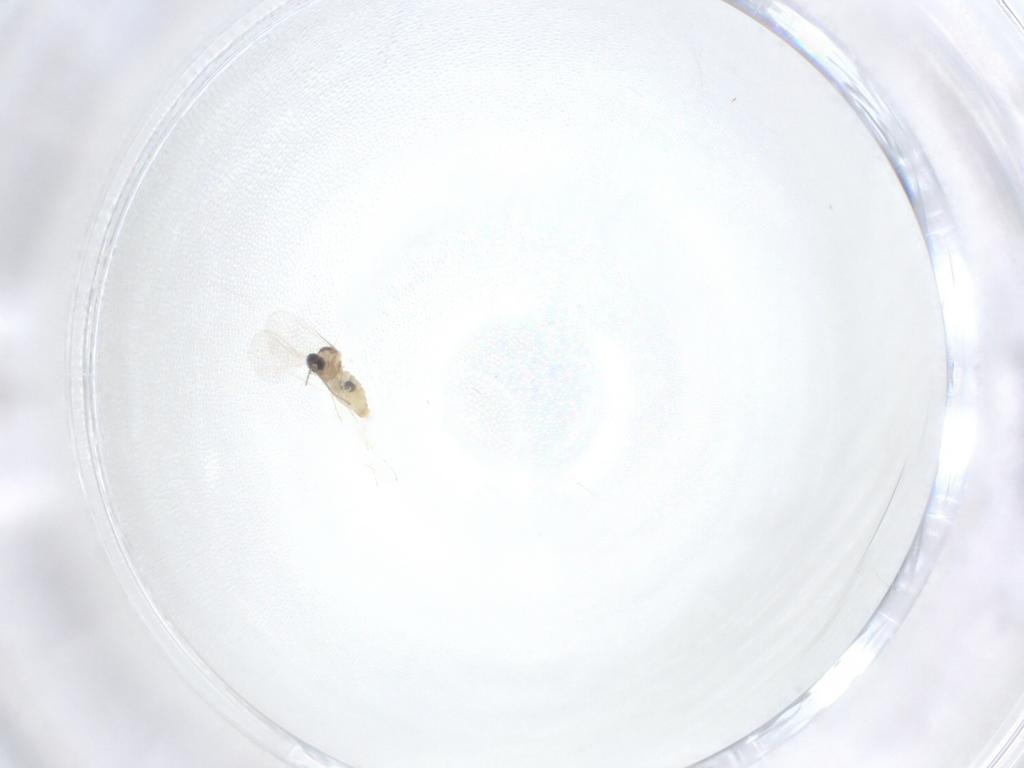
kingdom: Animalia
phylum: Arthropoda
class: Insecta
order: Diptera
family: Cecidomyiidae
